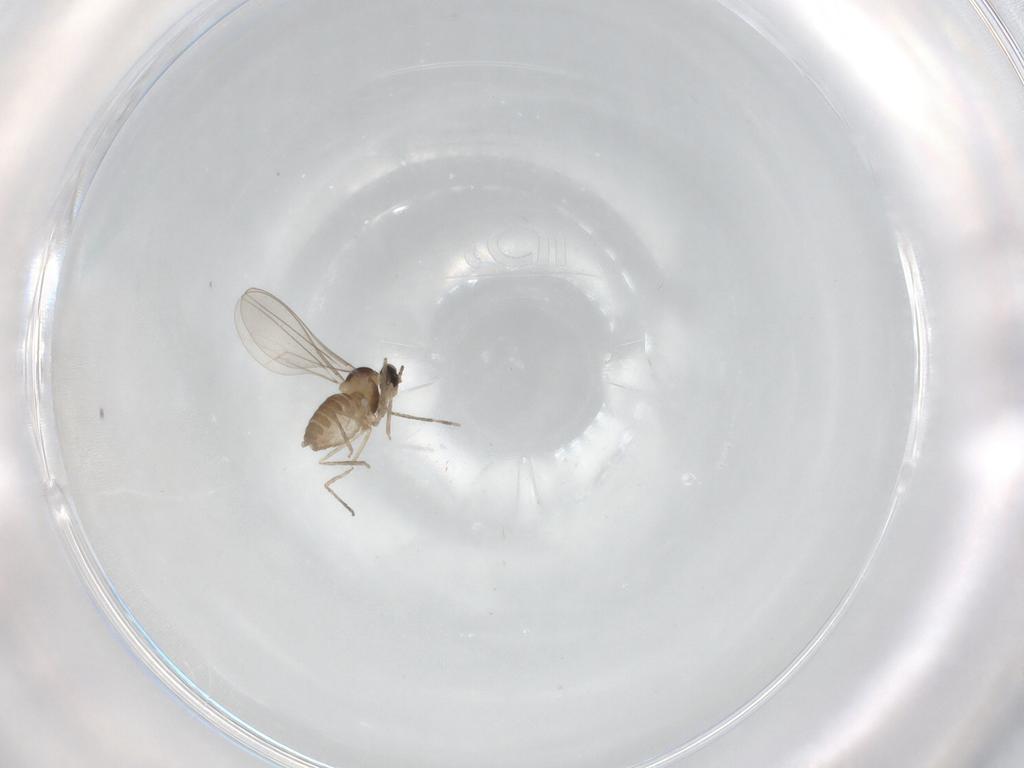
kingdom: Animalia
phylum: Arthropoda
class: Insecta
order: Diptera
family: Cecidomyiidae
